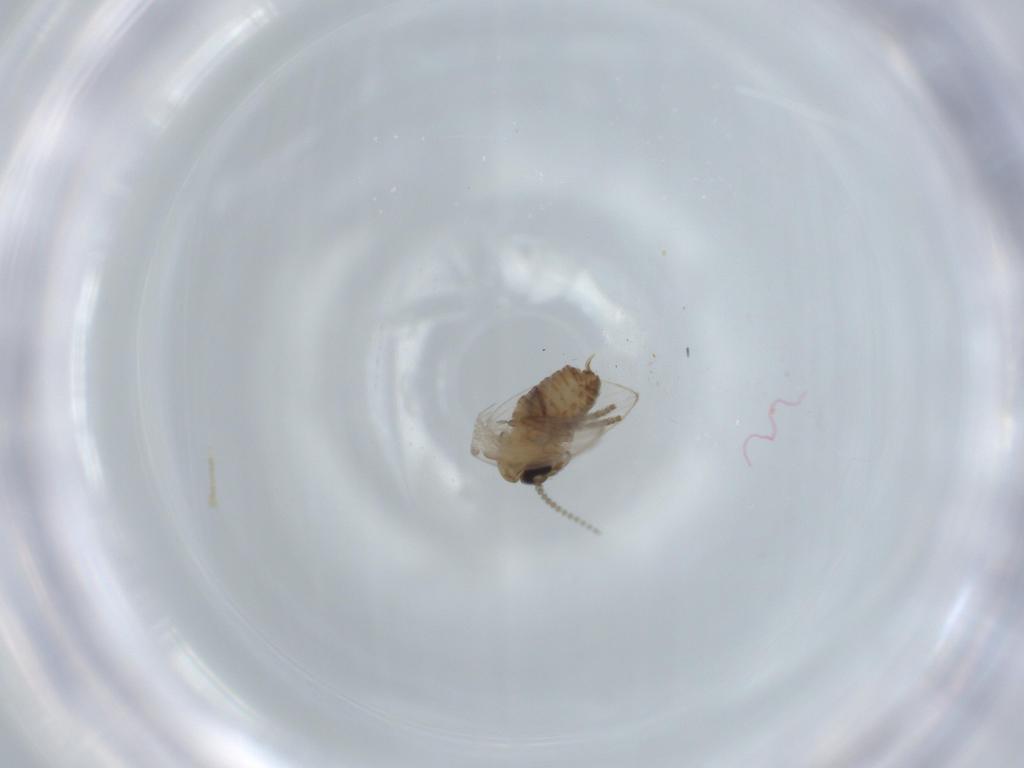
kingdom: Animalia
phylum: Arthropoda
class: Insecta
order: Diptera
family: Psychodidae
